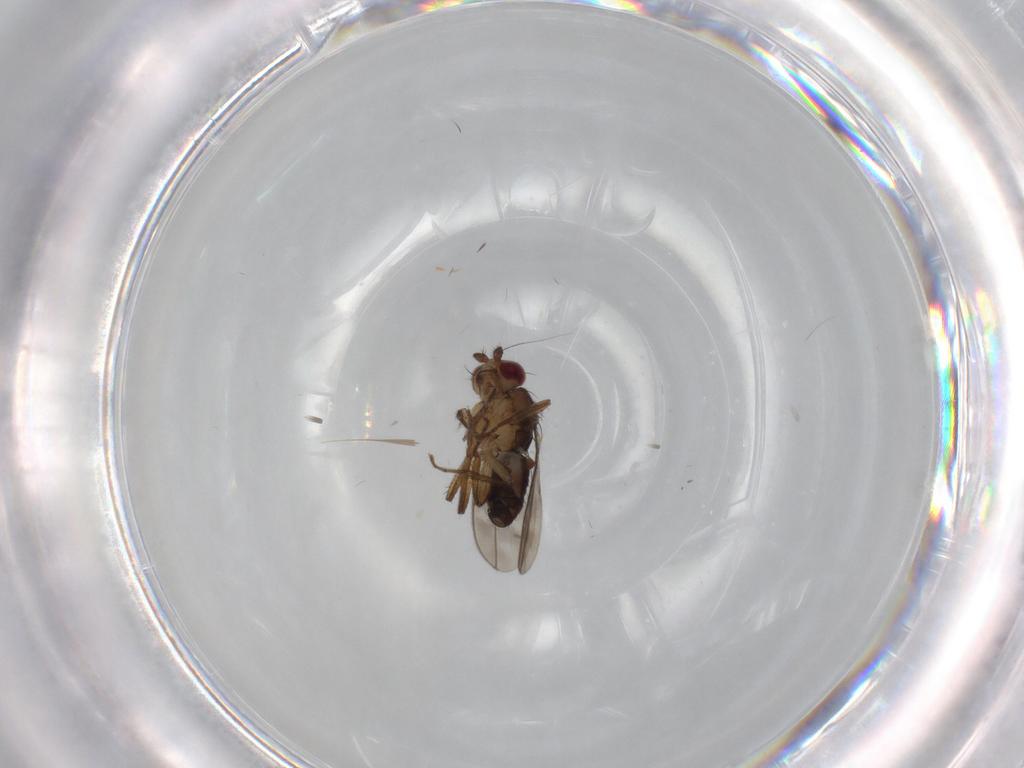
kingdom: Animalia
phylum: Arthropoda
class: Insecta
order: Diptera
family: Sphaeroceridae
